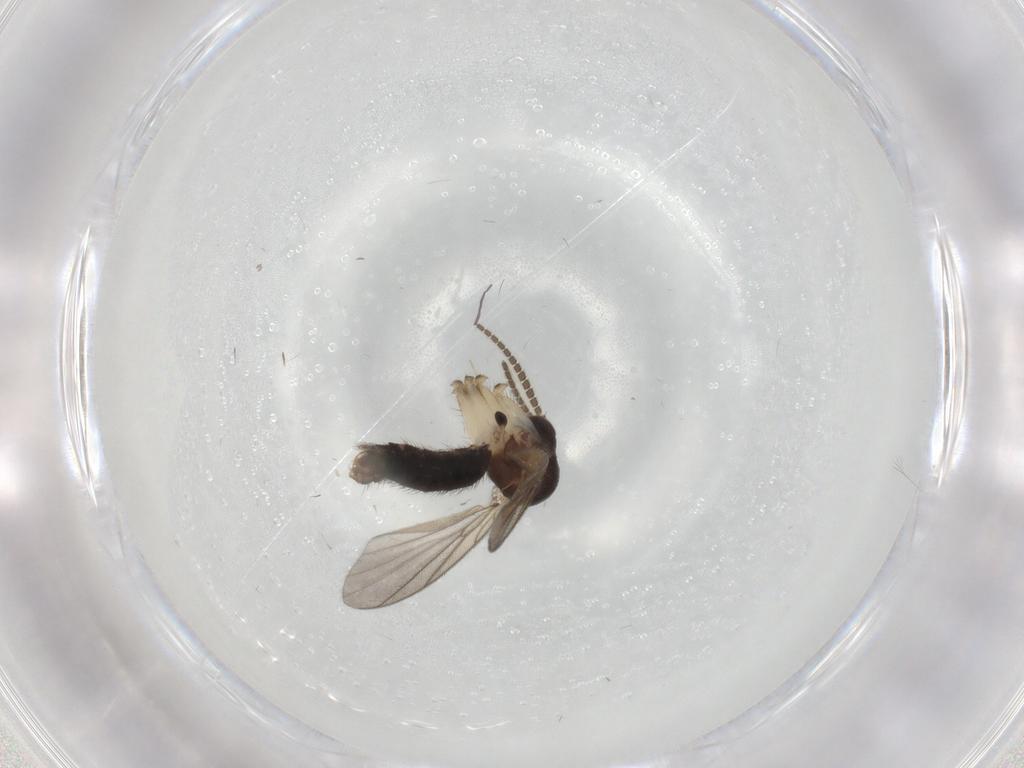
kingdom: Animalia
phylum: Arthropoda
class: Insecta
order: Diptera
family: Mycetophilidae
